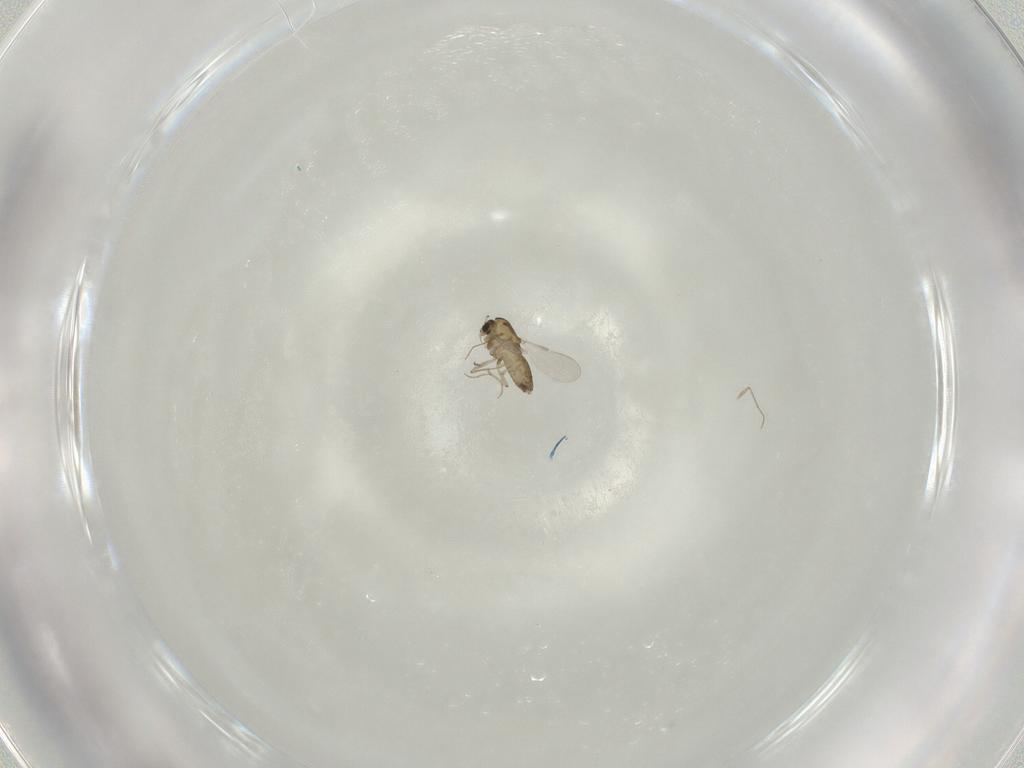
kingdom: Animalia
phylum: Arthropoda
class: Insecta
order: Diptera
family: Chironomidae
